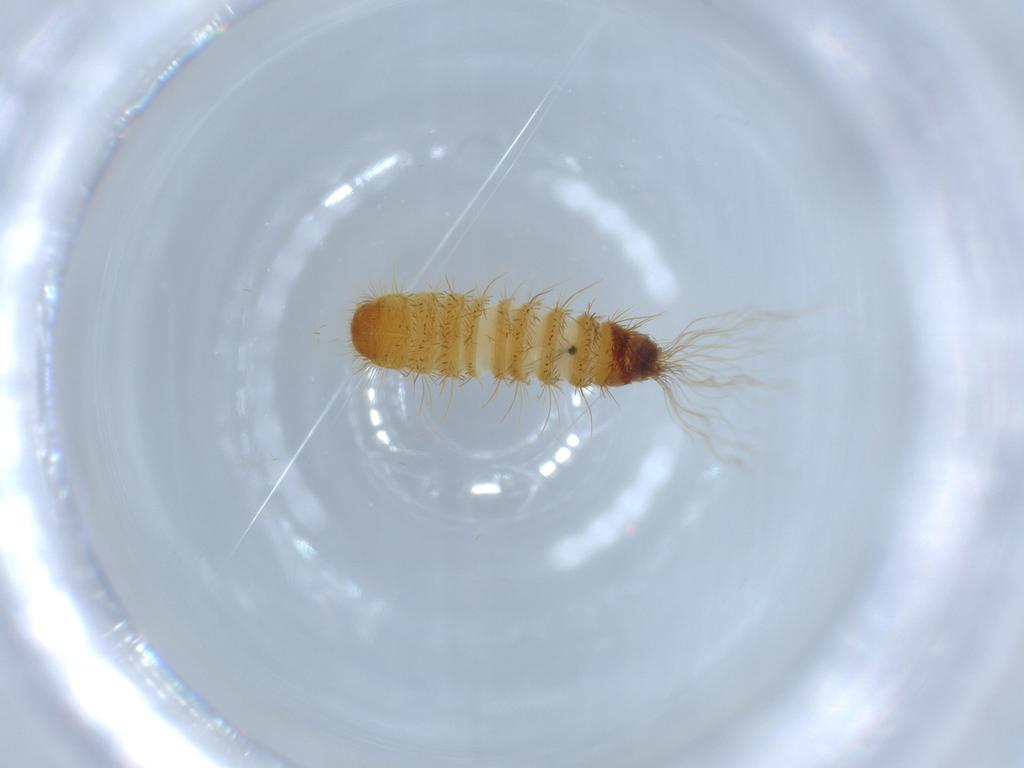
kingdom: Animalia
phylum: Arthropoda
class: Insecta
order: Coleoptera
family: Dermestidae
